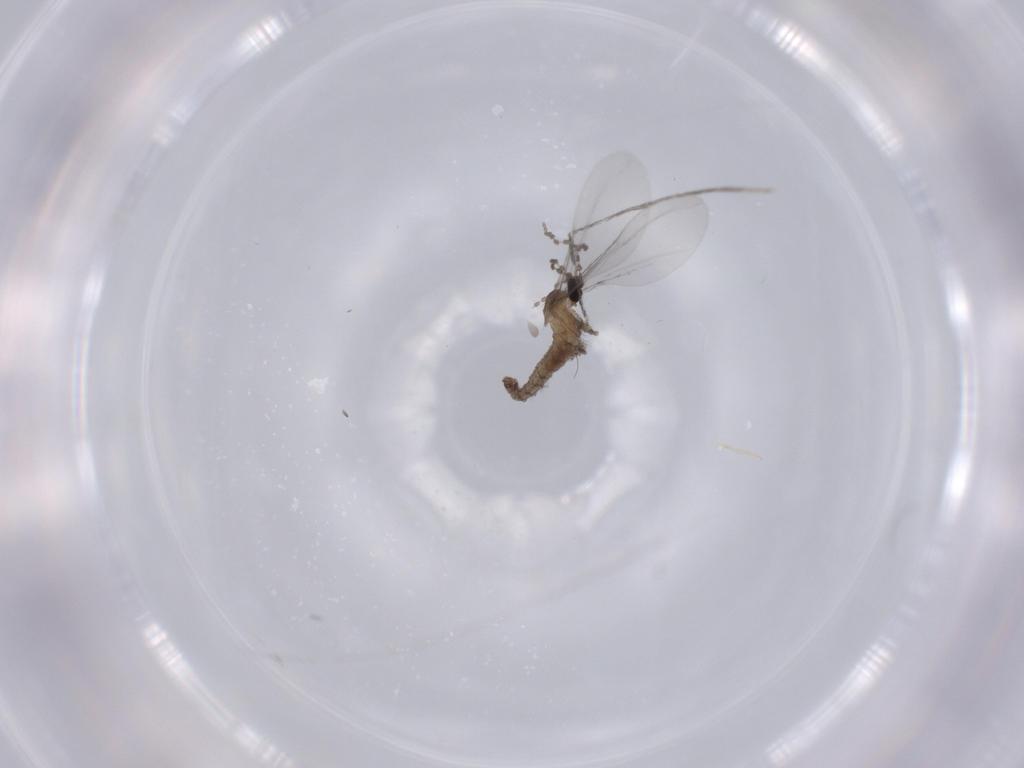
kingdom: Animalia
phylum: Arthropoda
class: Insecta
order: Diptera
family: Cecidomyiidae
